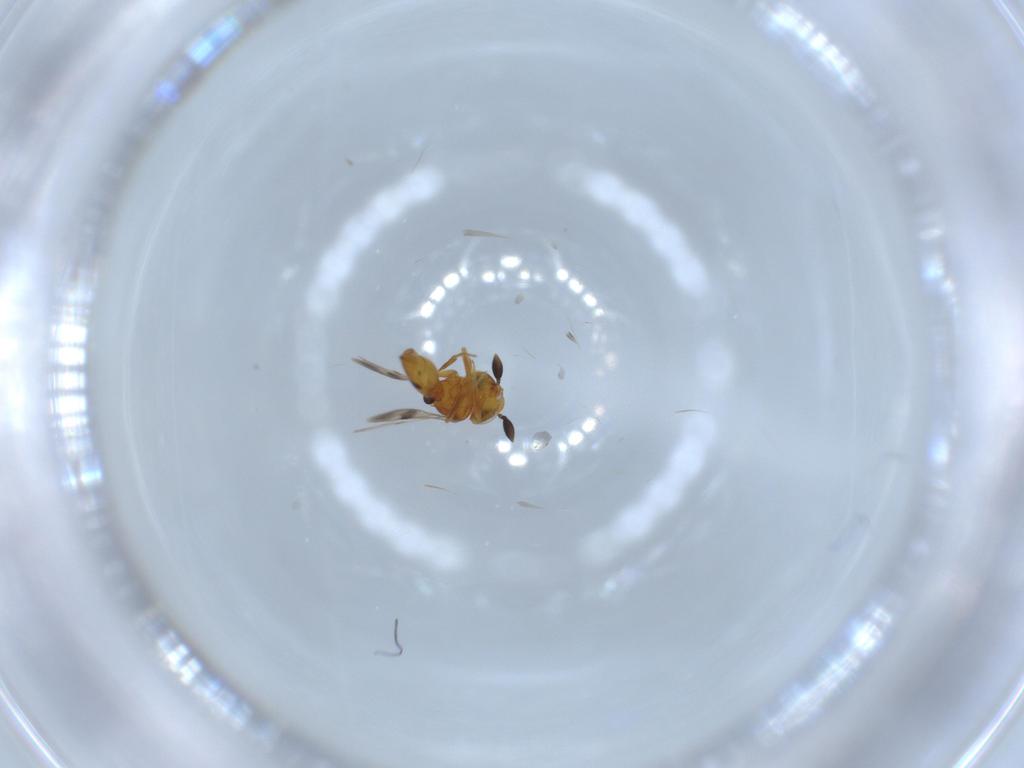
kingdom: Animalia
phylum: Arthropoda
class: Insecta
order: Hymenoptera
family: Scelionidae
